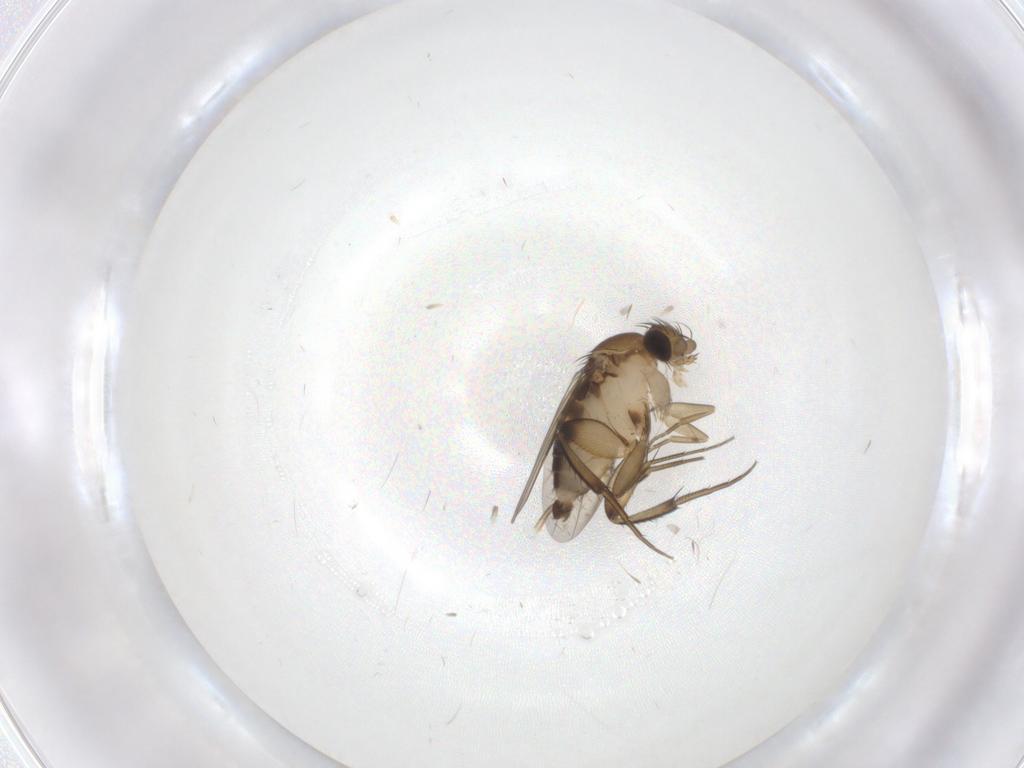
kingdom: Animalia
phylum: Arthropoda
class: Insecta
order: Diptera
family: Phoridae
